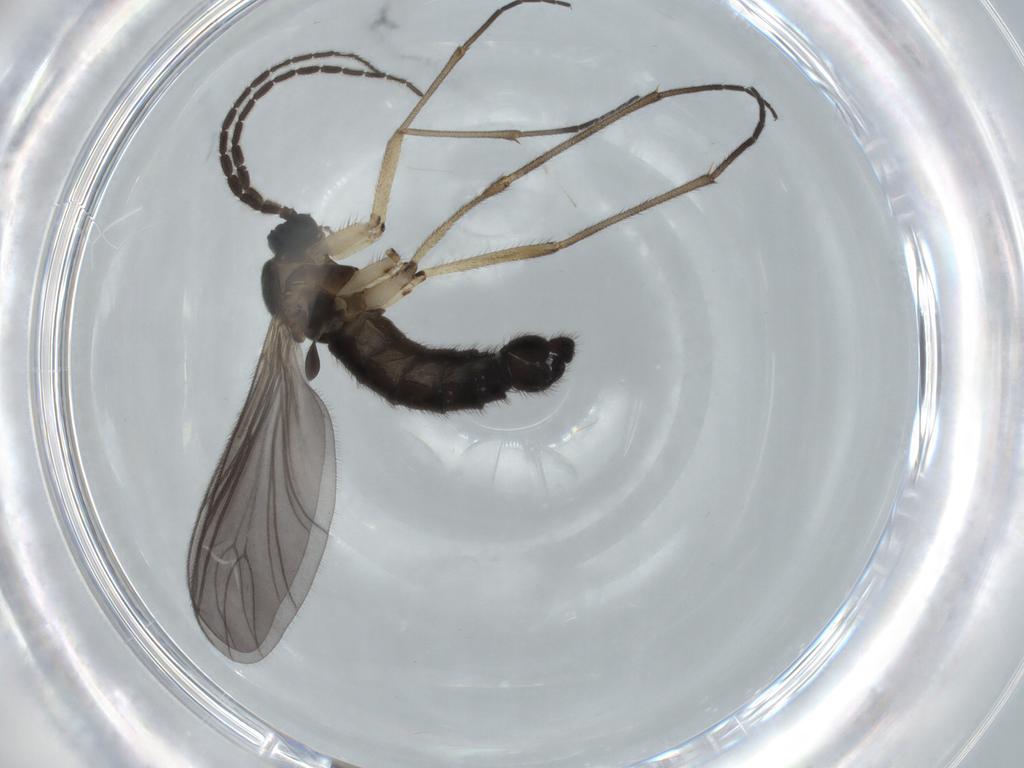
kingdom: Animalia
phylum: Arthropoda
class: Insecta
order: Diptera
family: Sciaridae
